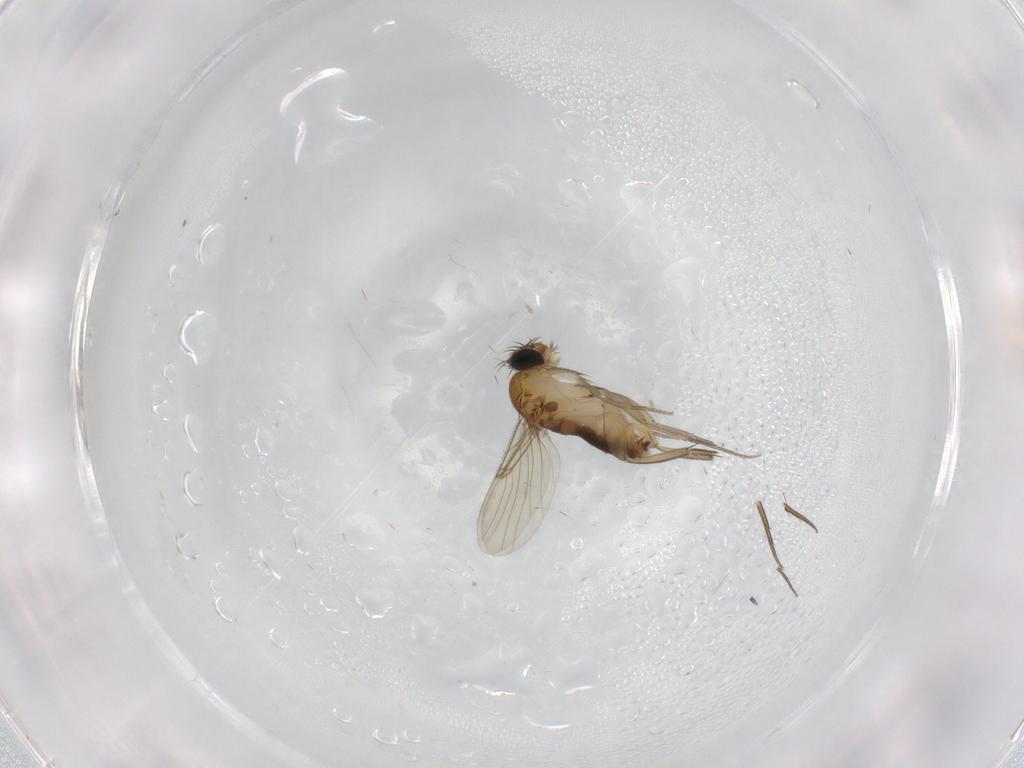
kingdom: Animalia
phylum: Arthropoda
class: Insecta
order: Diptera
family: Phoridae
